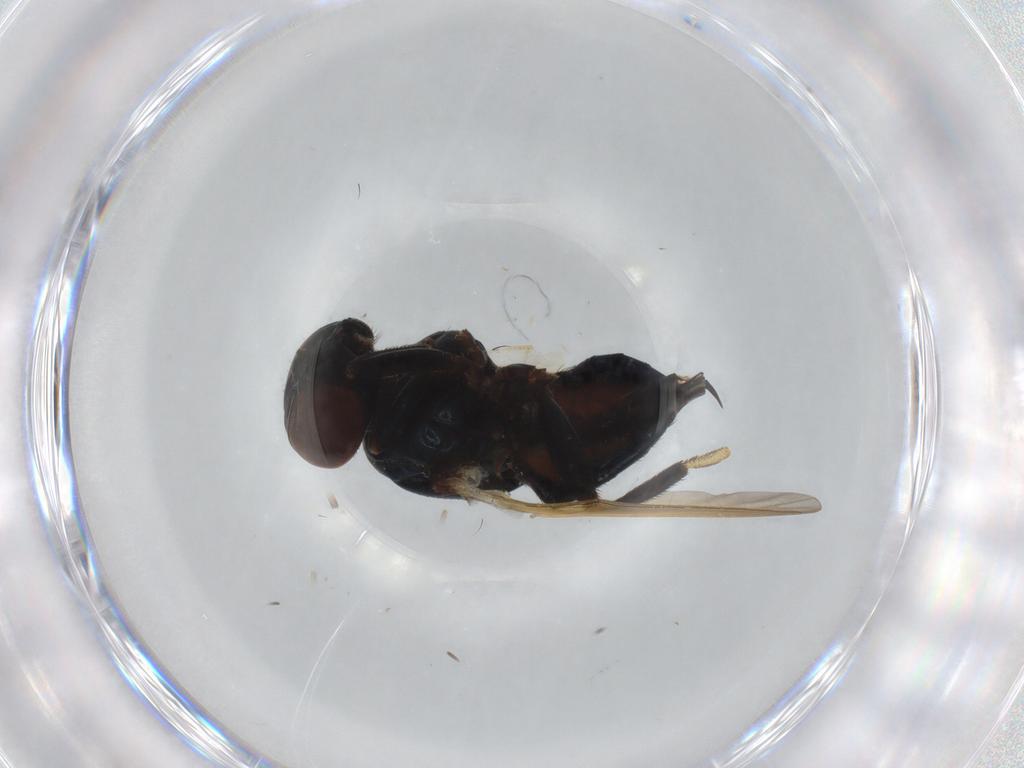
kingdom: Animalia
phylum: Arthropoda
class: Insecta
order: Diptera
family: Lonchaeidae
